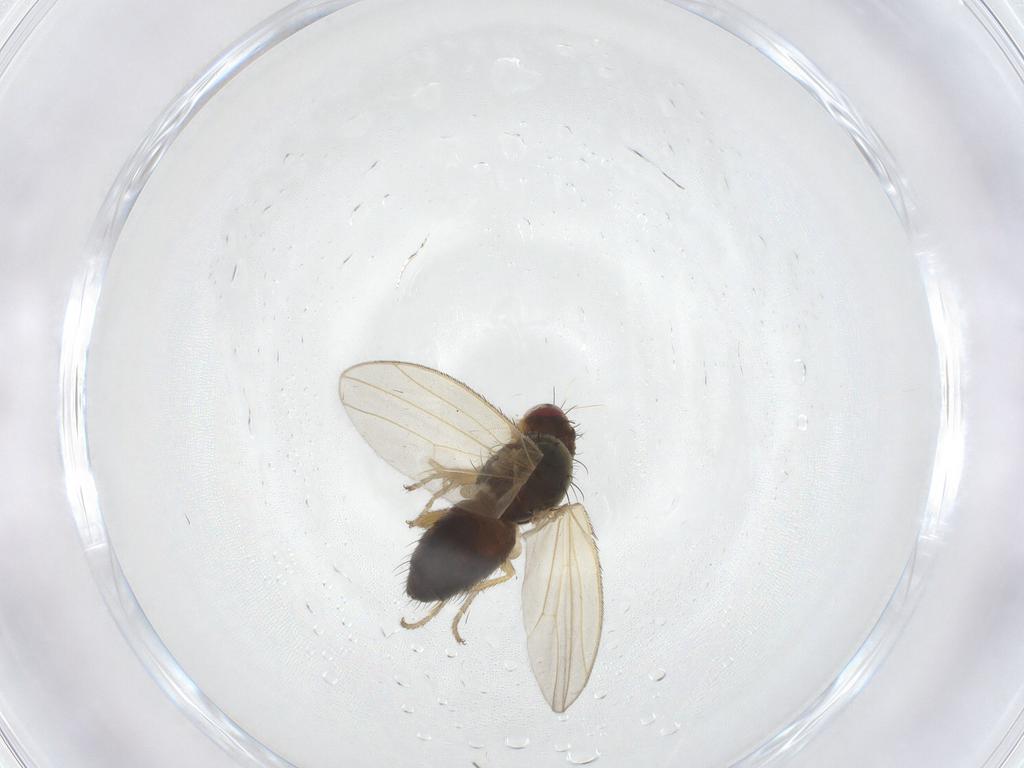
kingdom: Animalia
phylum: Arthropoda
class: Insecta
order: Diptera
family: Heleomyzidae
